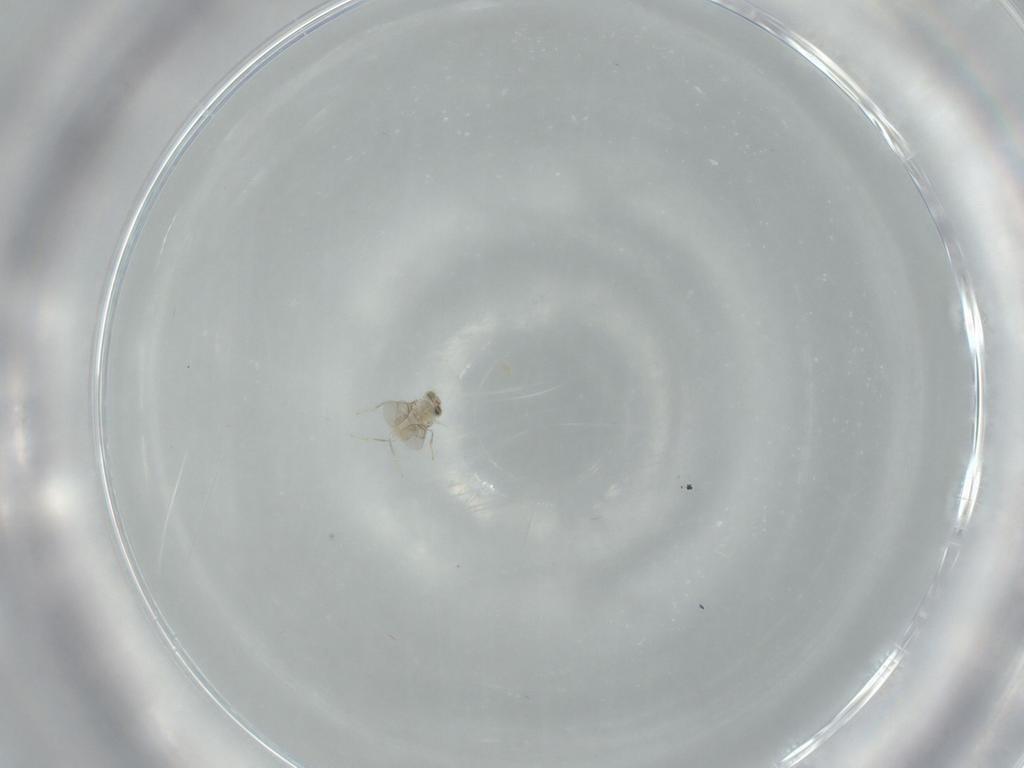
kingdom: Animalia
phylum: Arthropoda
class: Insecta
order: Hymenoptera
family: Aphelinidae
